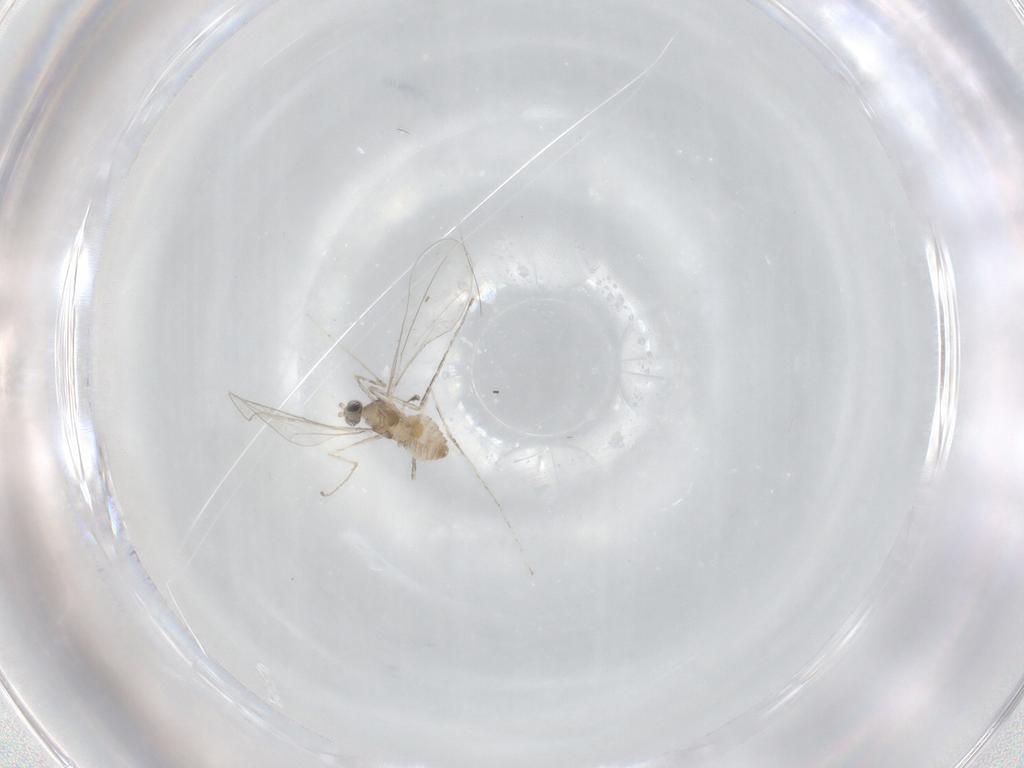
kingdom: Animalia
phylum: Arthropoda
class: Insecta
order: Diptera
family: Cecidomyiidae
